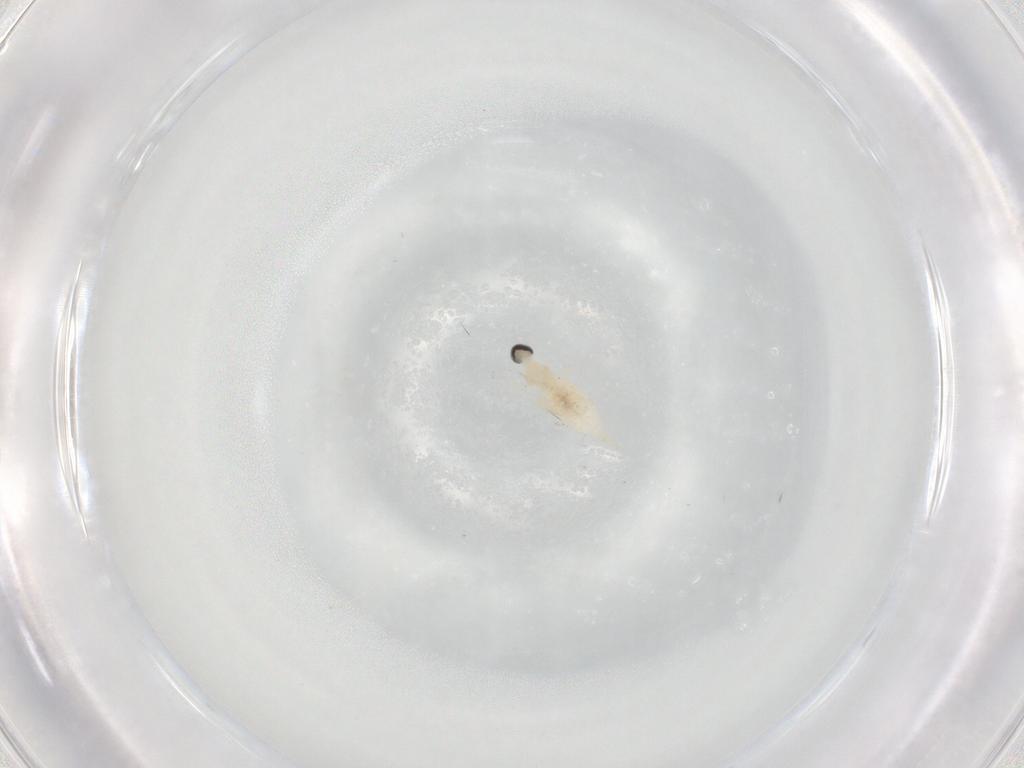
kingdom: Animalia
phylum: Arthropoda
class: Insecta
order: Diptera
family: Cecidomyiidae
